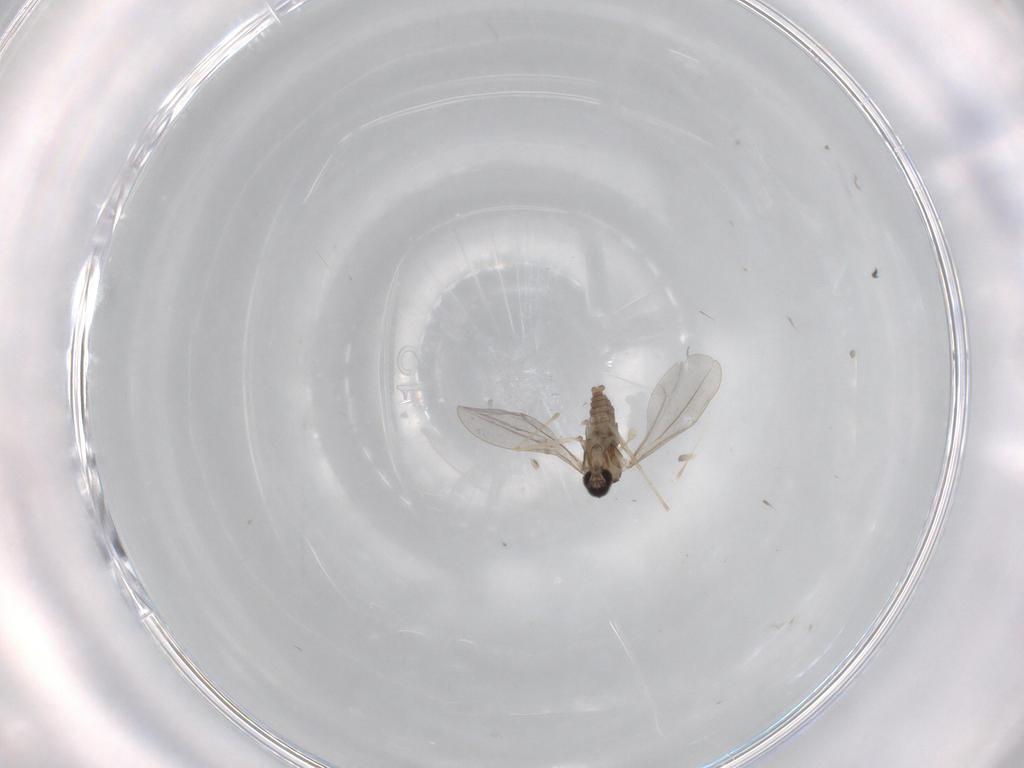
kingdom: Animalia
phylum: Arthropoda
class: Insecta
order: Diptera
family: Cecidomyiidae
